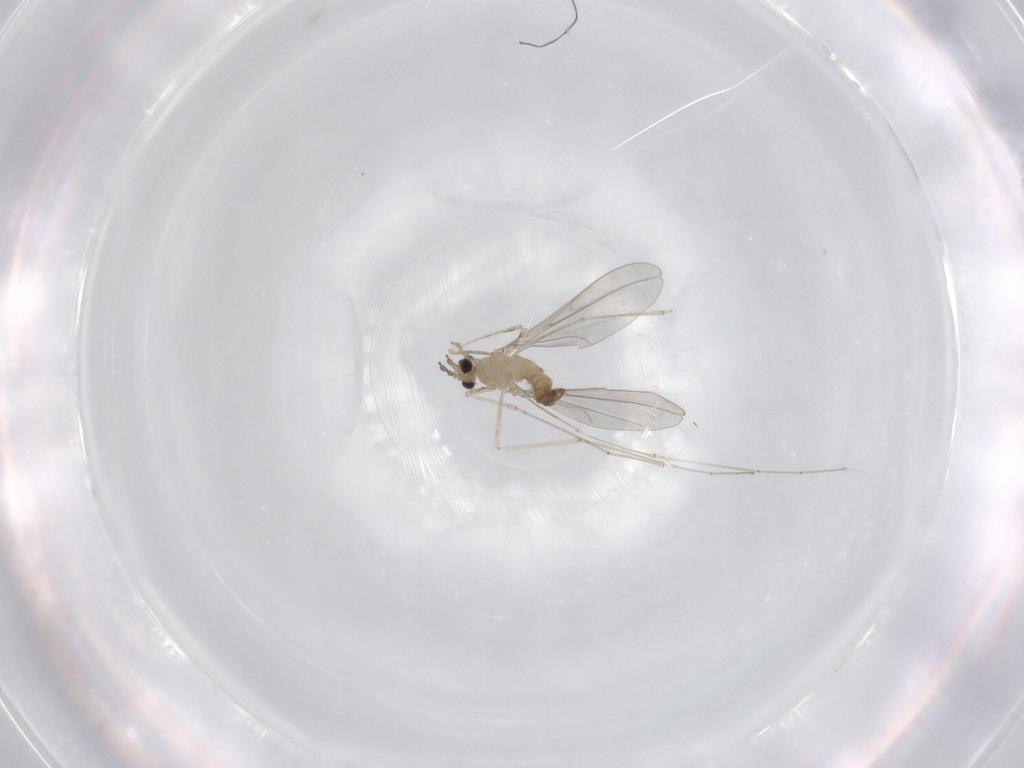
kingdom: Animalia
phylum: Arthropoda
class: Insecta
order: Diptera
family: Cecidomyiidae
